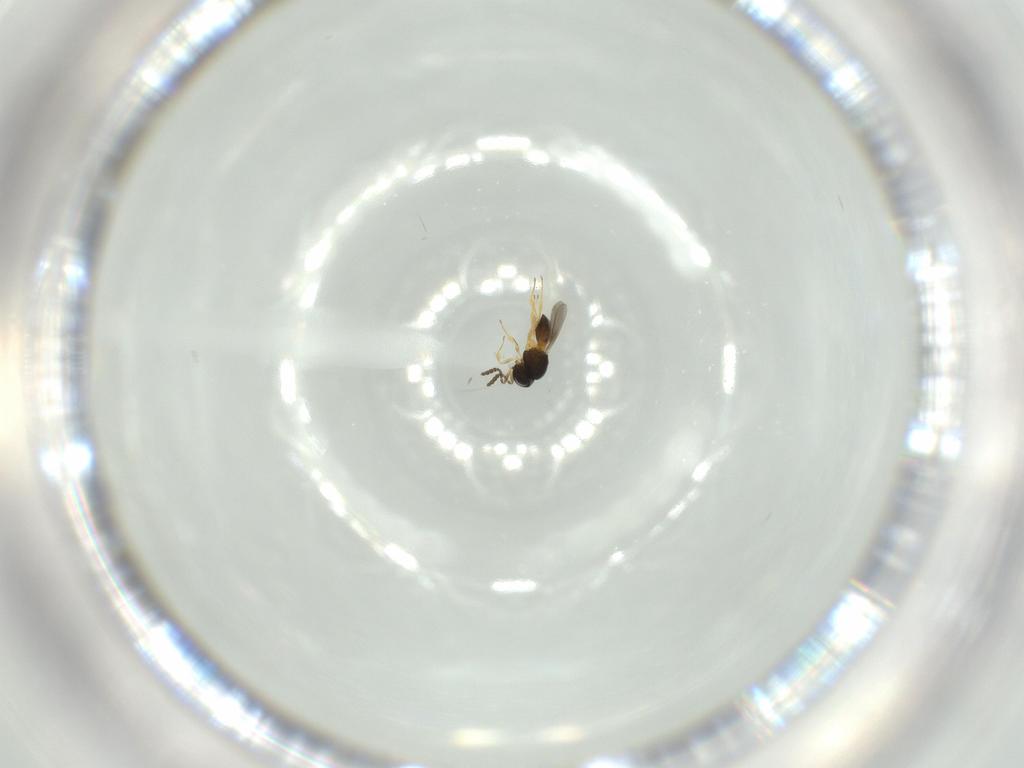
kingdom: Animalia
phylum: Arthropoda
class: Insecta
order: Hymenoptera
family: Scelionidae
